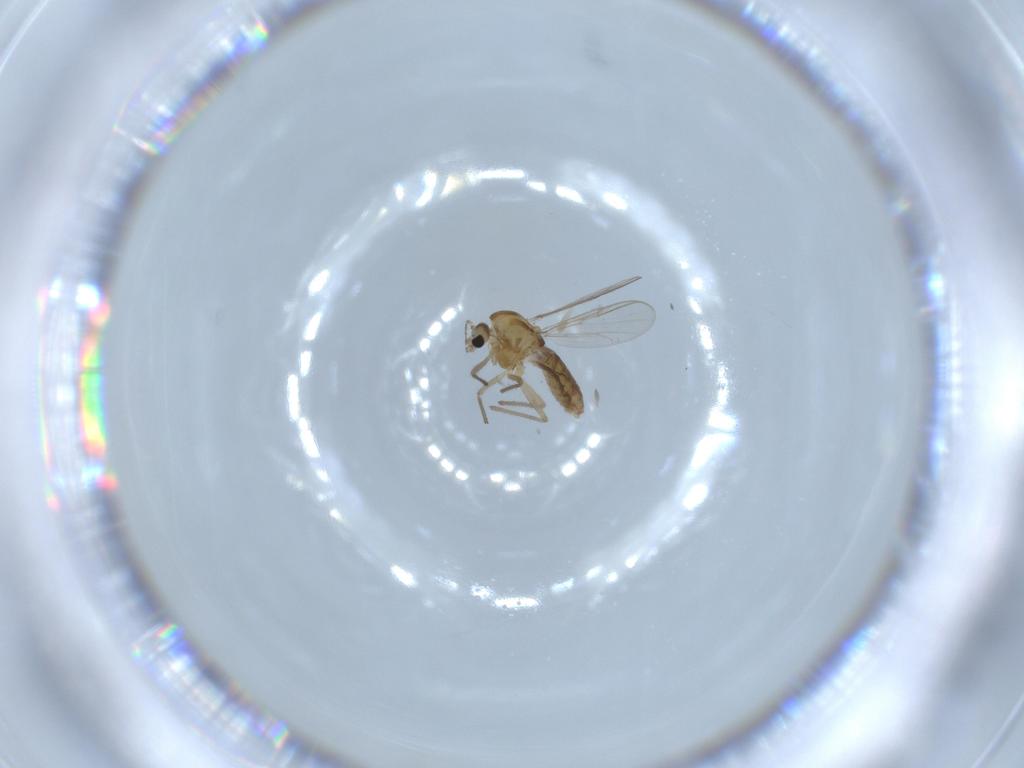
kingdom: Animalia
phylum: Arthropoda
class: Insecta
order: Diptera
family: Chironomidae
